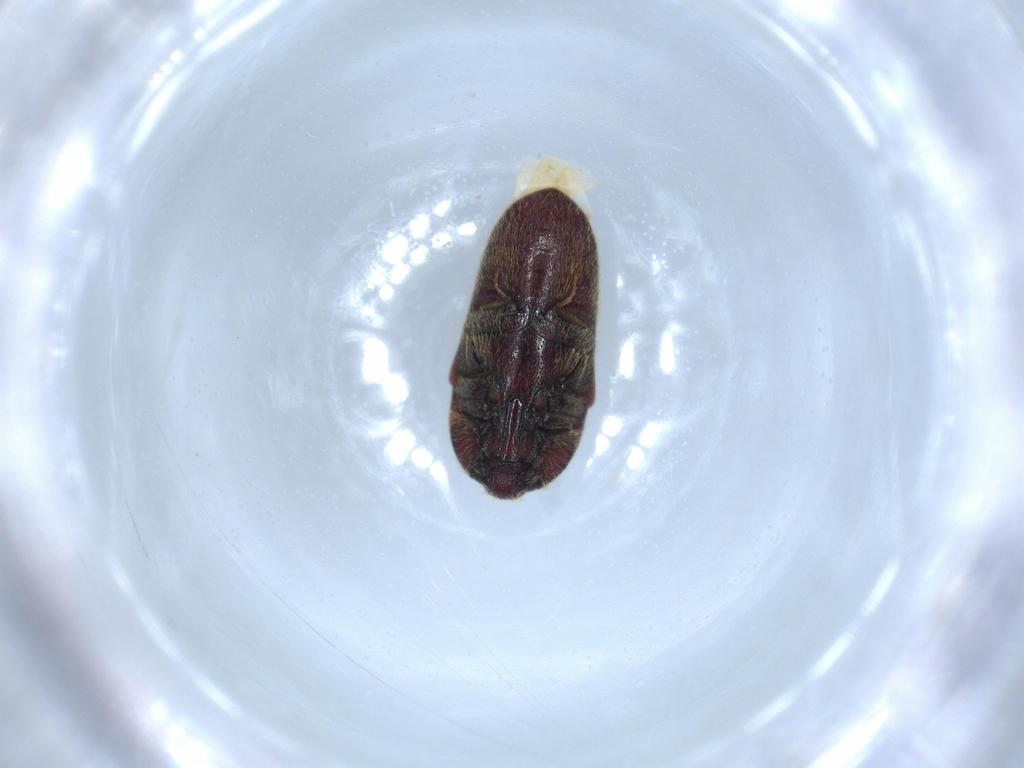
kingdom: Animalia
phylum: Arthropoda
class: Insecta
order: Coleoptera
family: Throscidae
